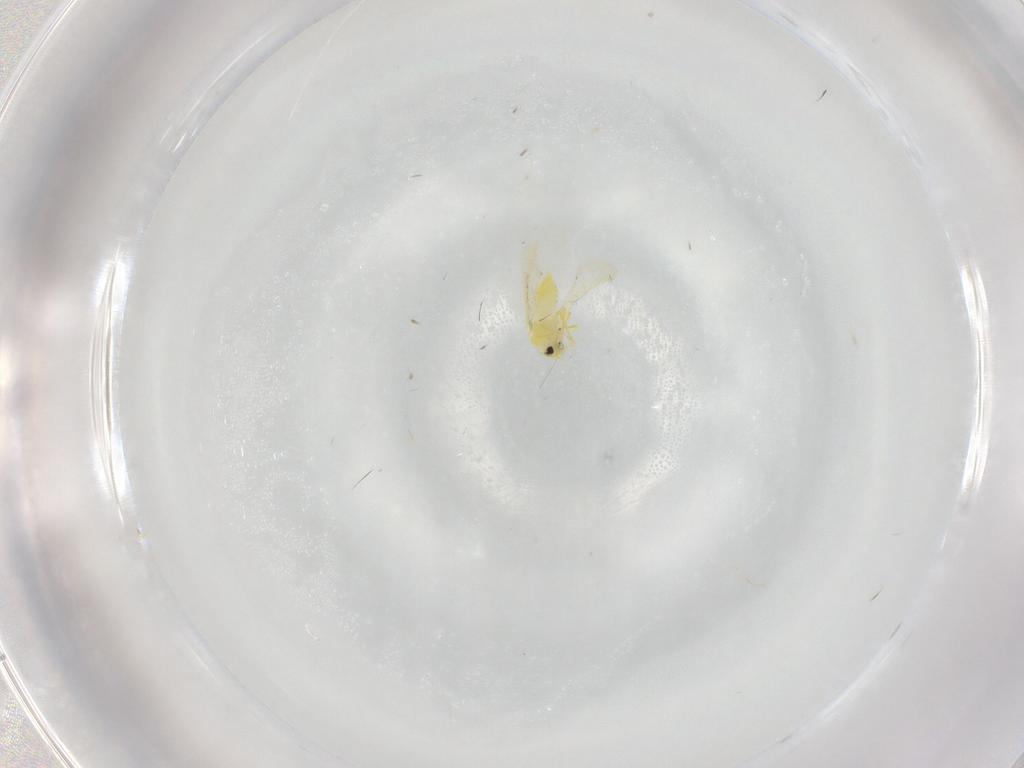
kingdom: Animalia
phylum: Arthropoda
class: Insecta
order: Hemiptera
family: Aleyrodidae
